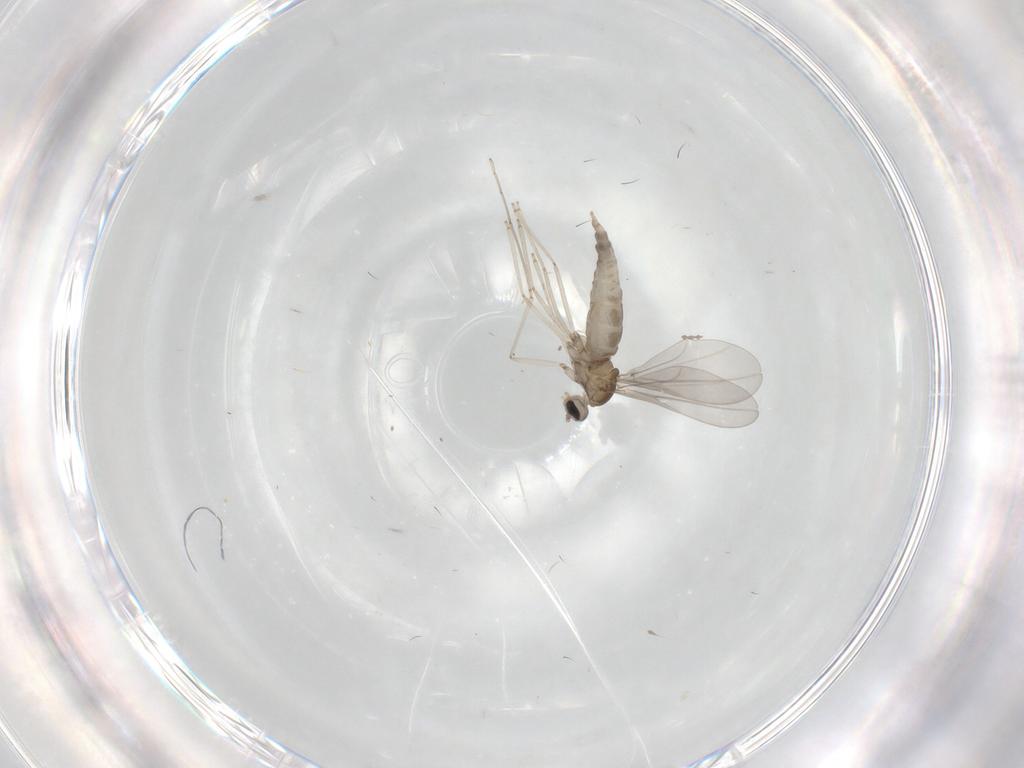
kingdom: Animalia
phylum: Arthropoda
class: Insecta
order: Diptera
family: Cecidomyiidae
